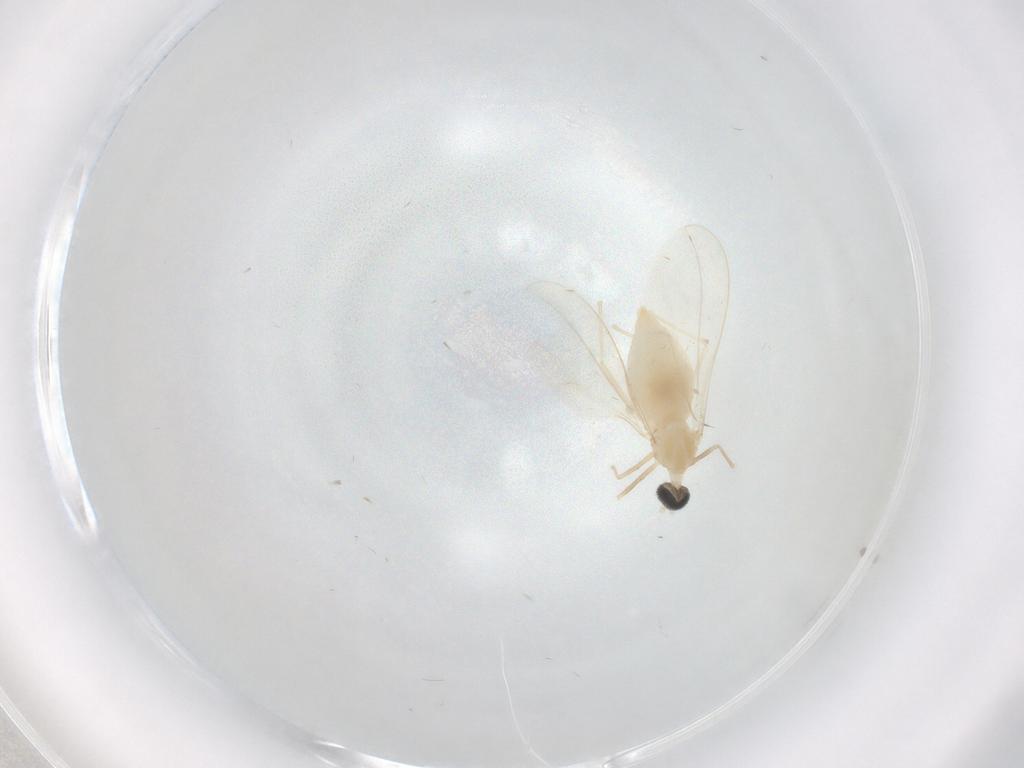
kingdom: Animalia
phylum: Arthropoda
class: Insecta
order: Diptera
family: Cecidomyiidae
